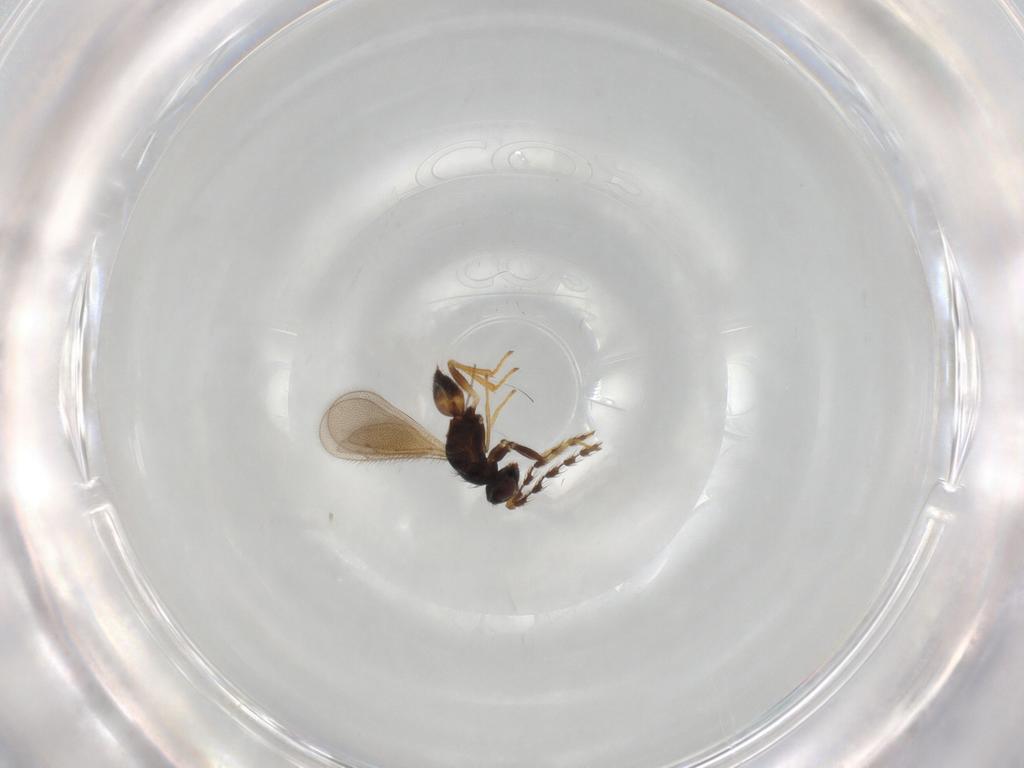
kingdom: Animalia
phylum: Arthropoda
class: Insecta
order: Hymenoptera
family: Eulophidae
